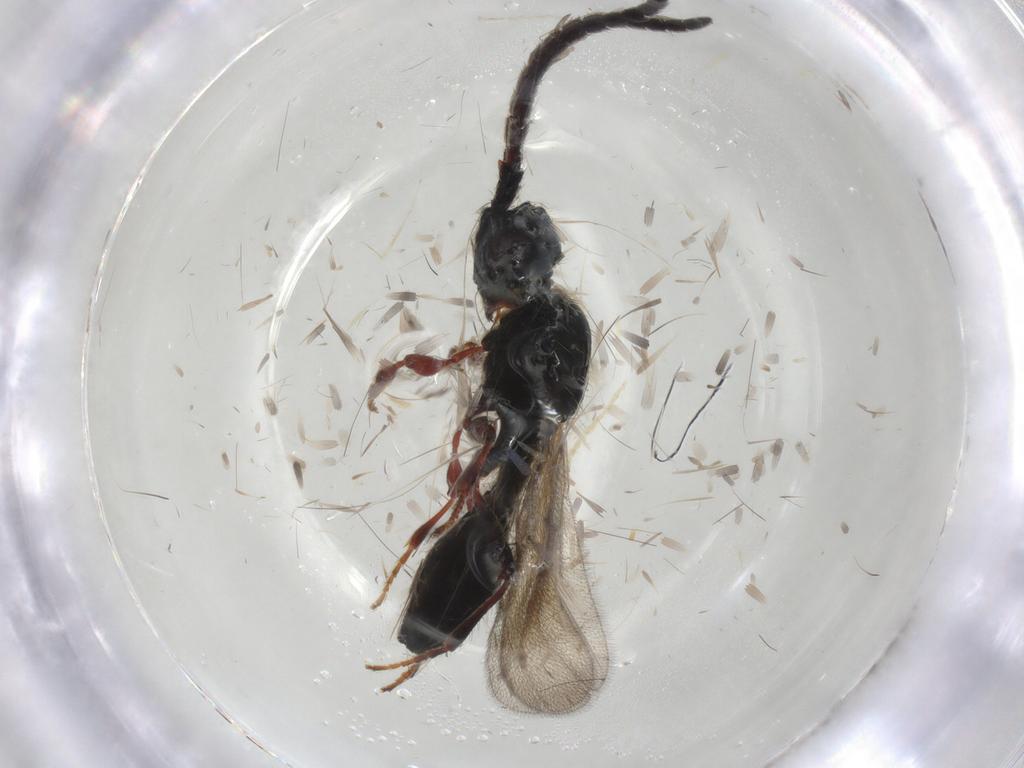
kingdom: Animalia
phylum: Arthropoda
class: Insecta
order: Hymenoptera
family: Diapriidae
